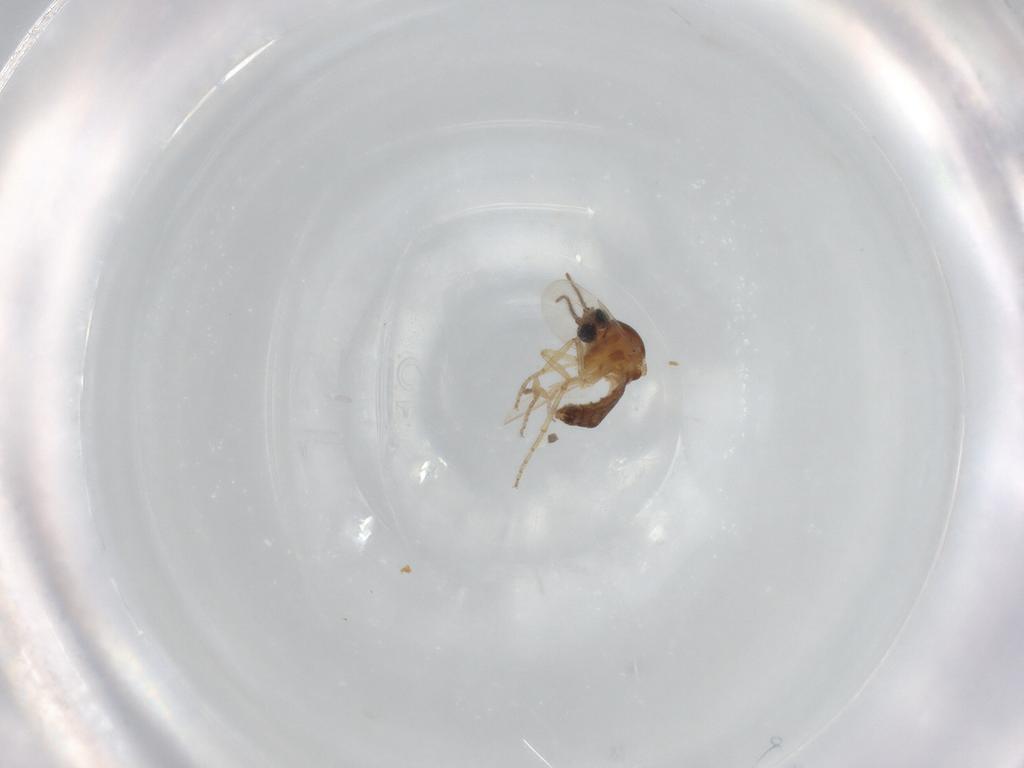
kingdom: Animalia
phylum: Arthropoda
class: Insecta
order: Diptera
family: Ceratopogonidae
